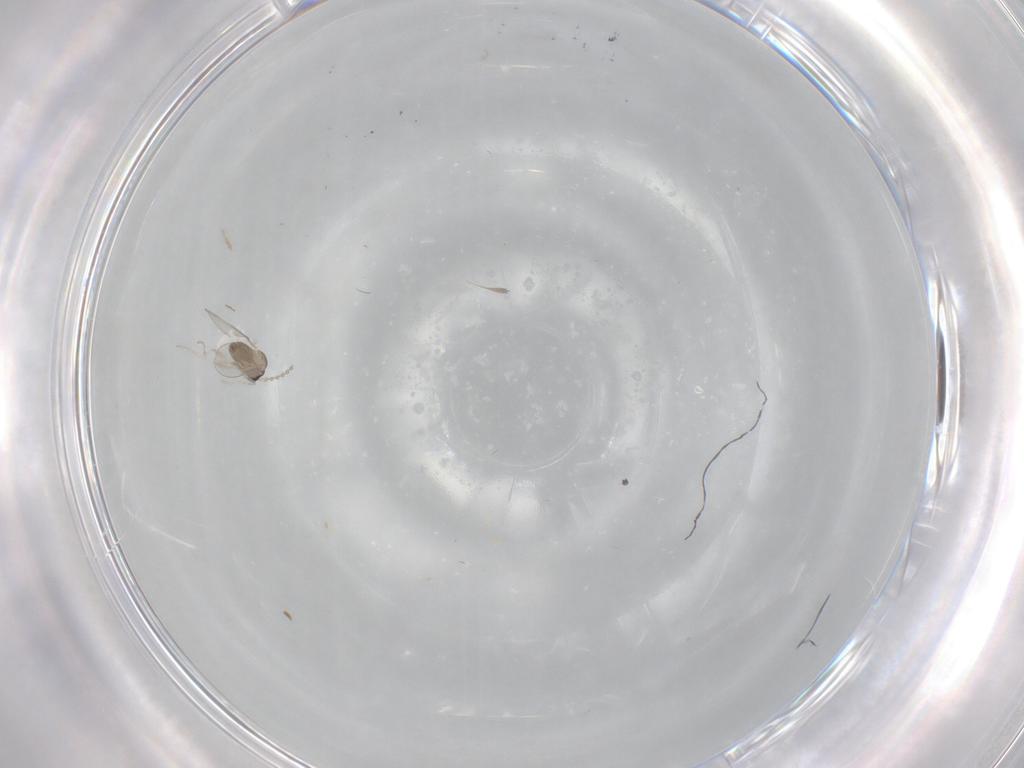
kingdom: Animalia
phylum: Arthropoda
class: Insecta
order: Diptera
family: Cecidomyiidae
